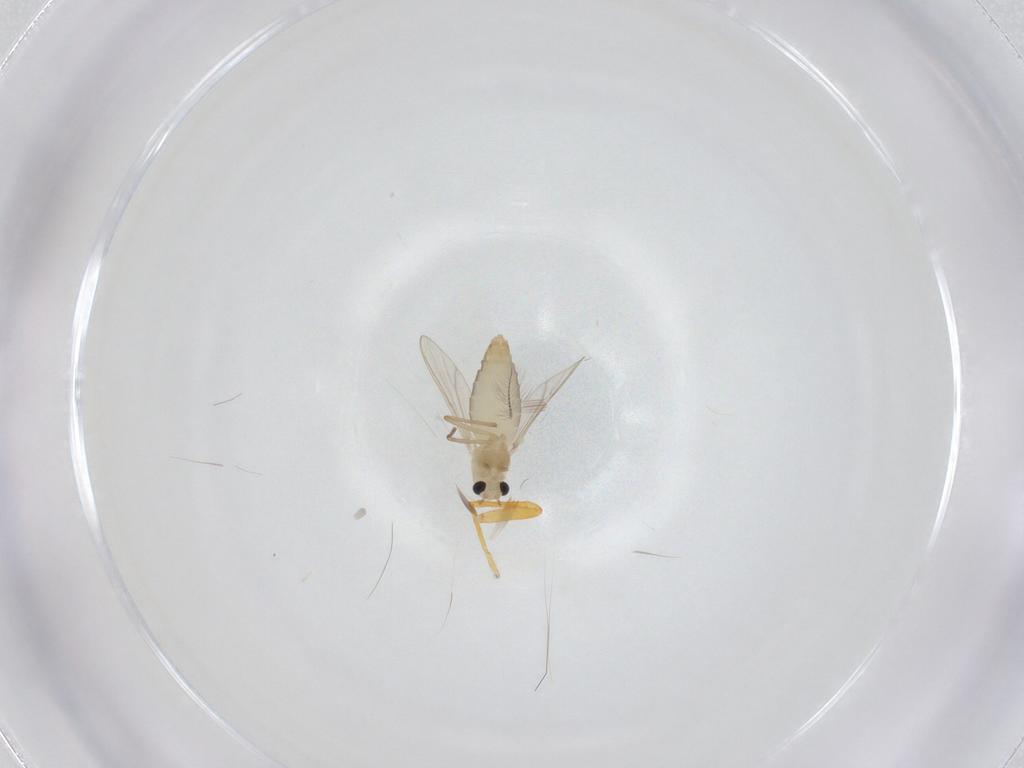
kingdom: Animalia
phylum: Arthropoda
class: Insecta
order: Diptera
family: Chironomidae
